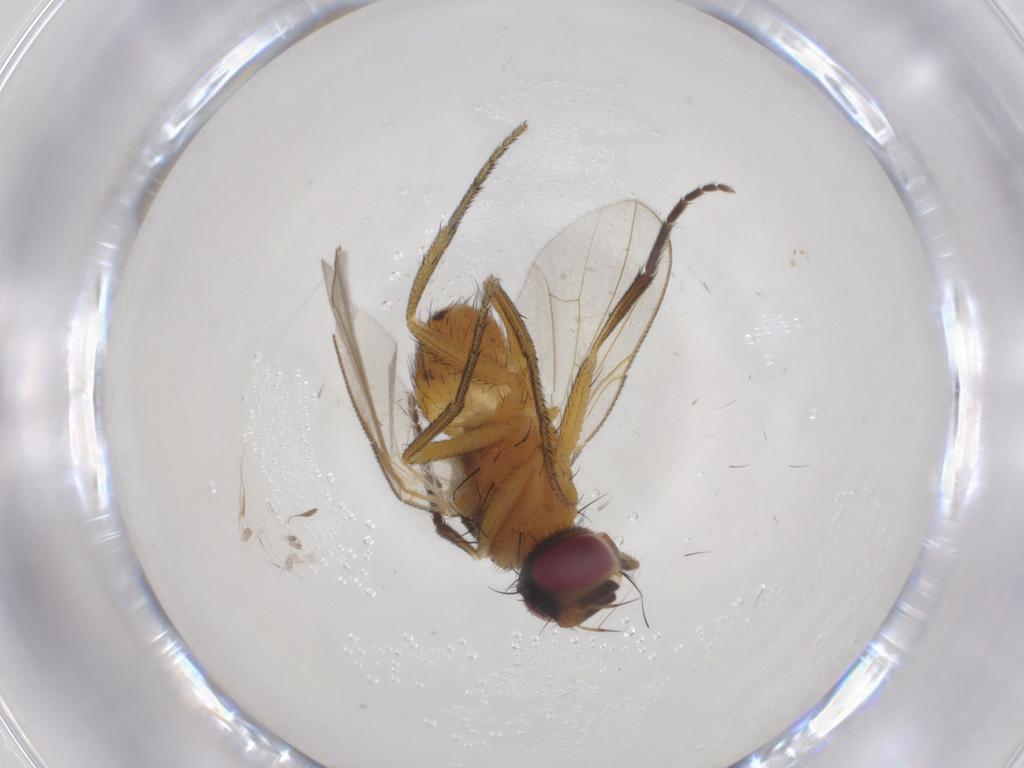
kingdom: Animalia
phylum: Arthropoda
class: Insecta
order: Diptera
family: Muscidae
